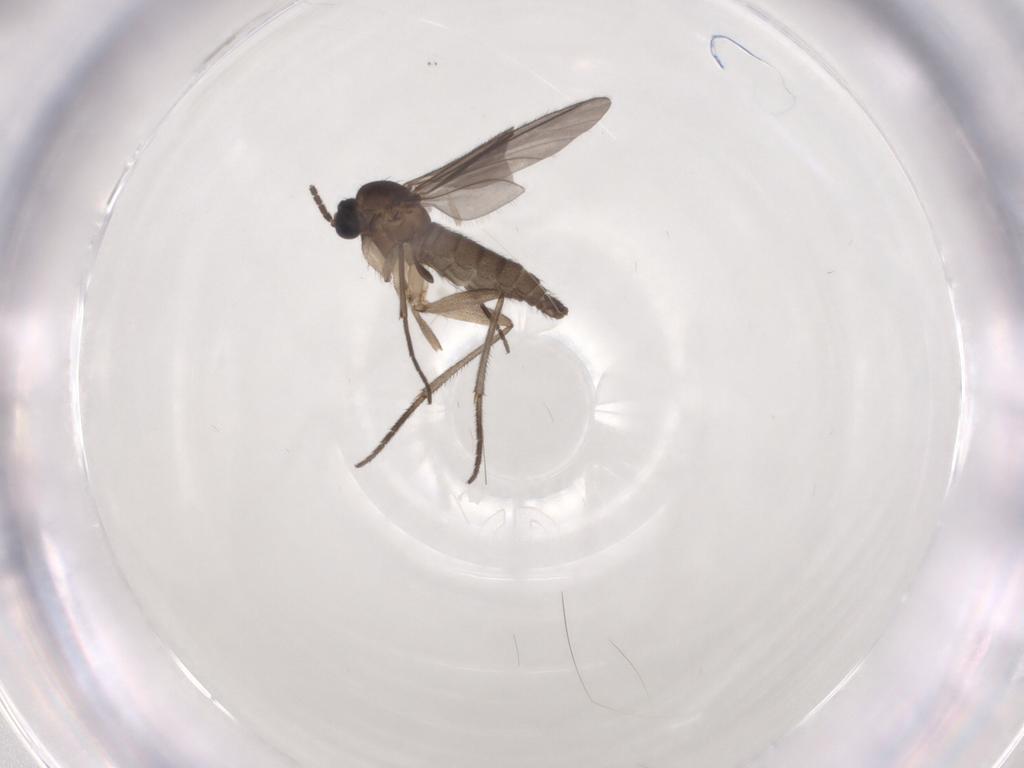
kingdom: Animalia
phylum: Arthropoda
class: Insecta
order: Diptera
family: Sciaridae
